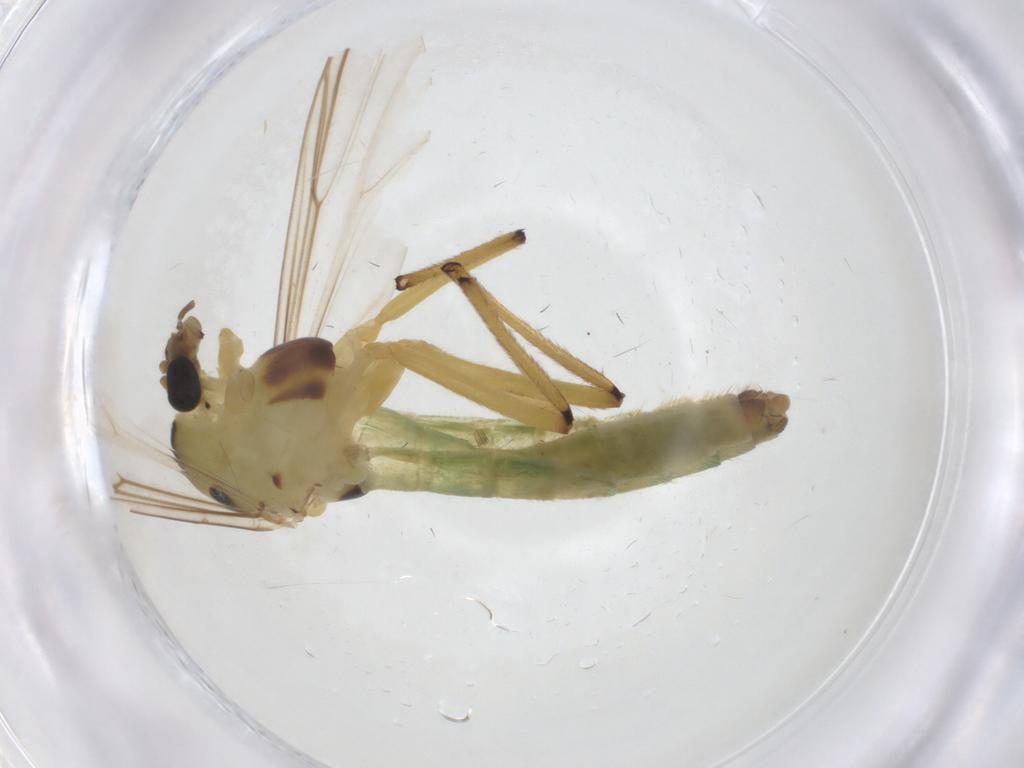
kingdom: Animalia
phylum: Arthropoda
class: Insecta
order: Diptera
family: Chironomidae
